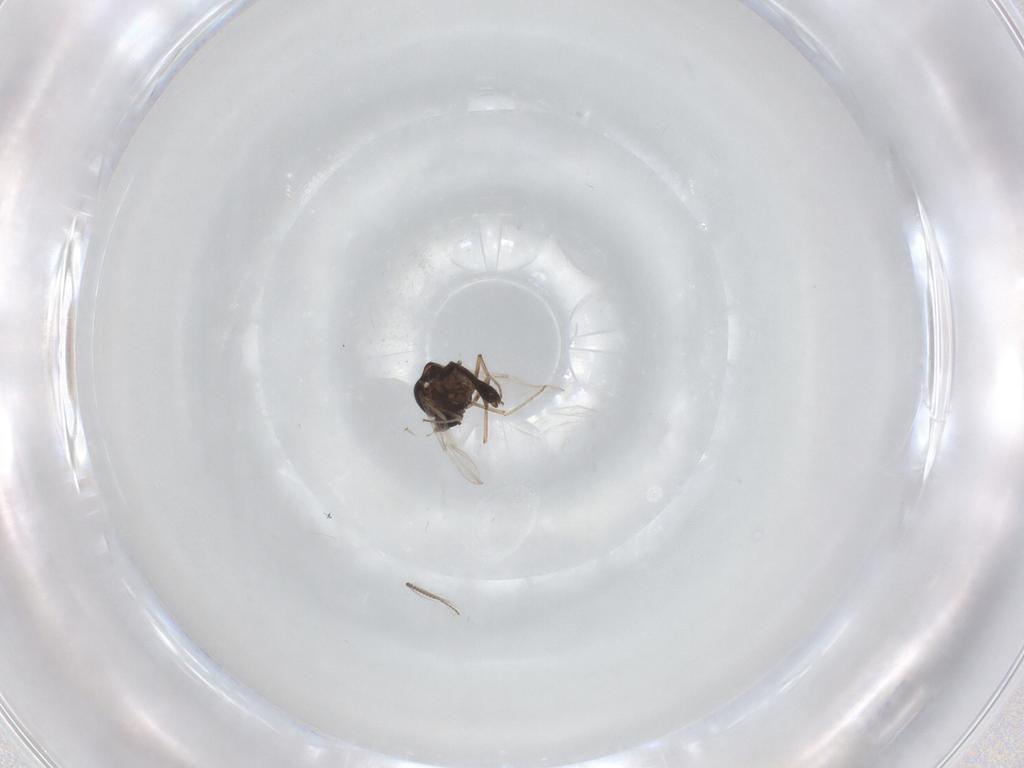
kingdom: Animalia
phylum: Arthropoda
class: Insecta
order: Diptera
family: Ceratopogonidae
